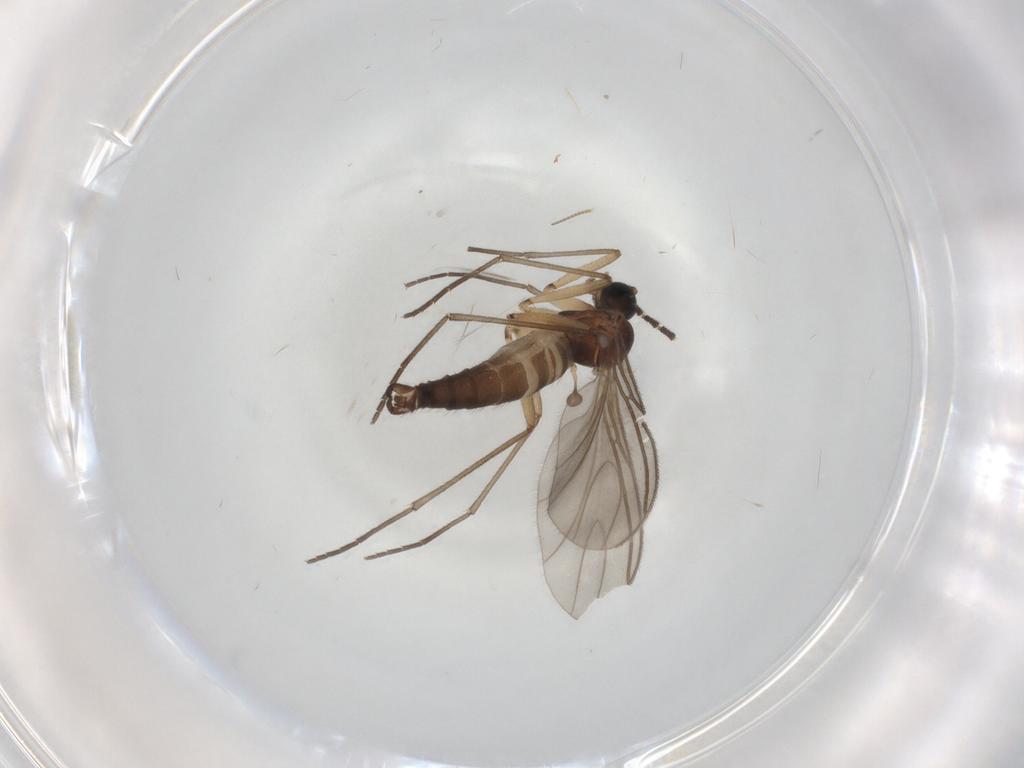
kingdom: Animalia
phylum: Arthropoda
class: Insecta
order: Diptera
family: Sciaridae
